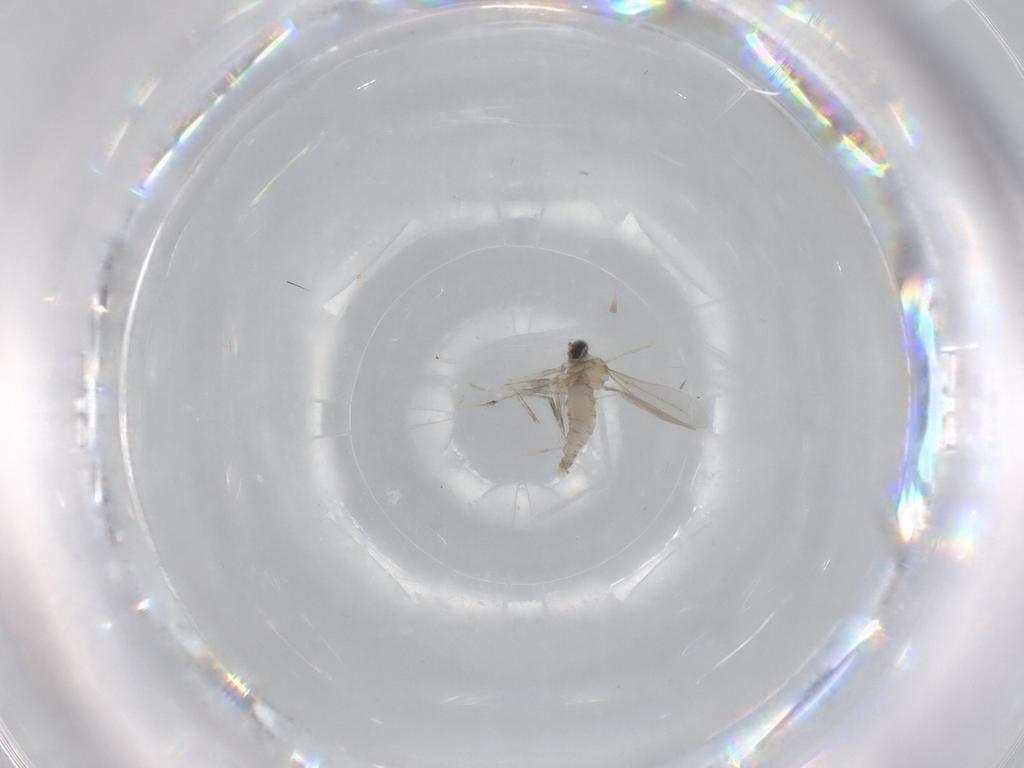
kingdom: Animalia
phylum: Arthropoda
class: Insecta
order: Diptera
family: Cecidomyiidae
